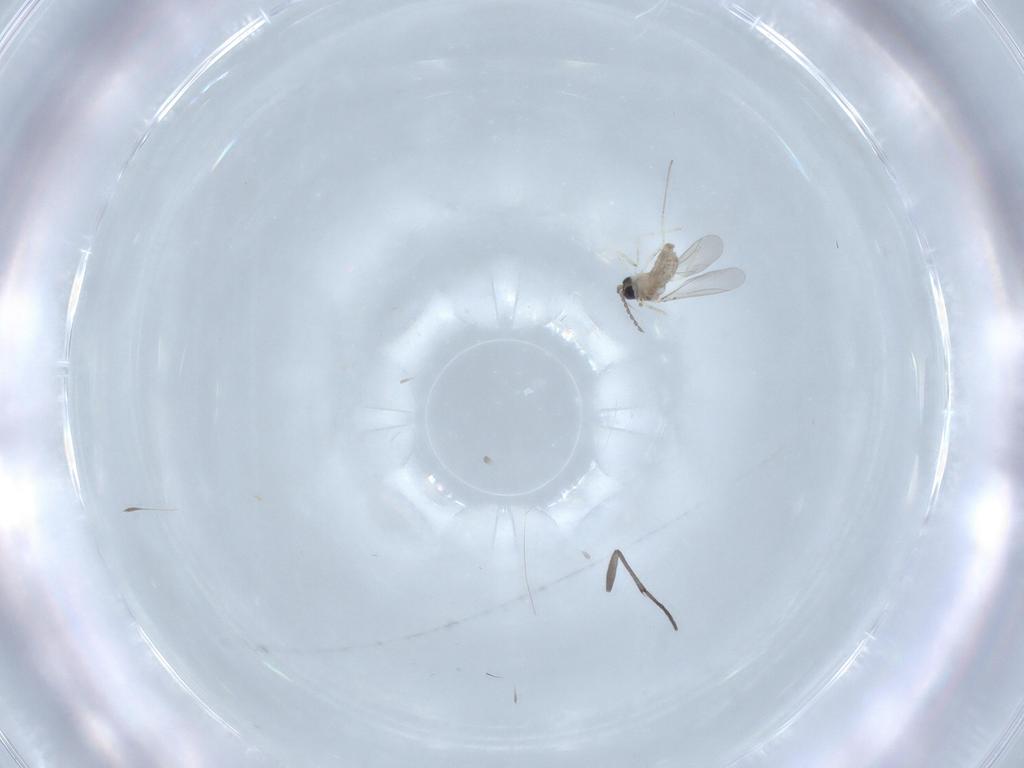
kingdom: Animalia
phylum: Arthropoda
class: Insecta
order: Diptera
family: Cecidomyiidae
